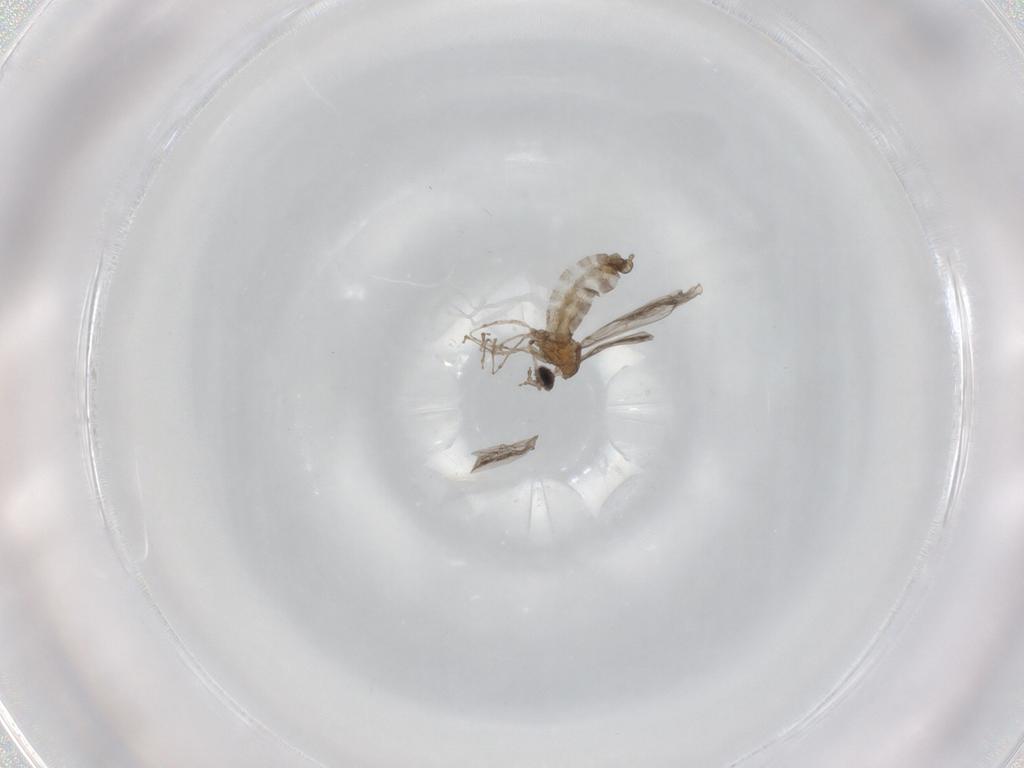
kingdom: Animalia
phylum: Arthropoda
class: Insecta
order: Diptera
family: Cecidomyiidae
